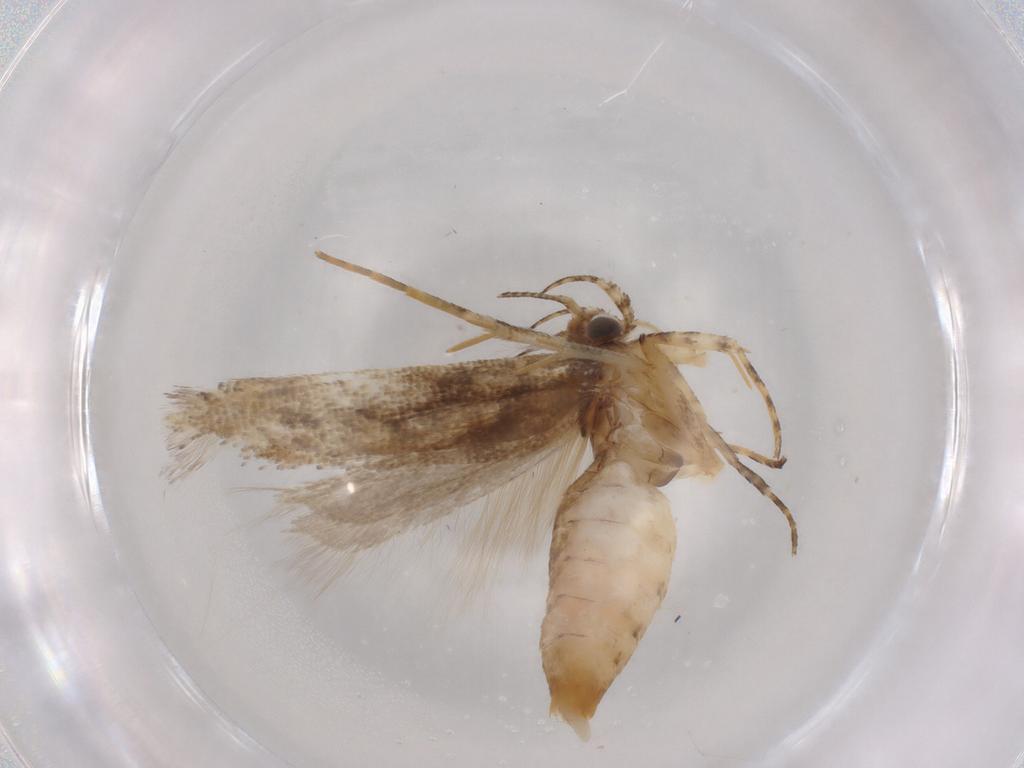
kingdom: Animalia
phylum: Arthropoda
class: Insecta
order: Lepidoptera
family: Gelechiidae
